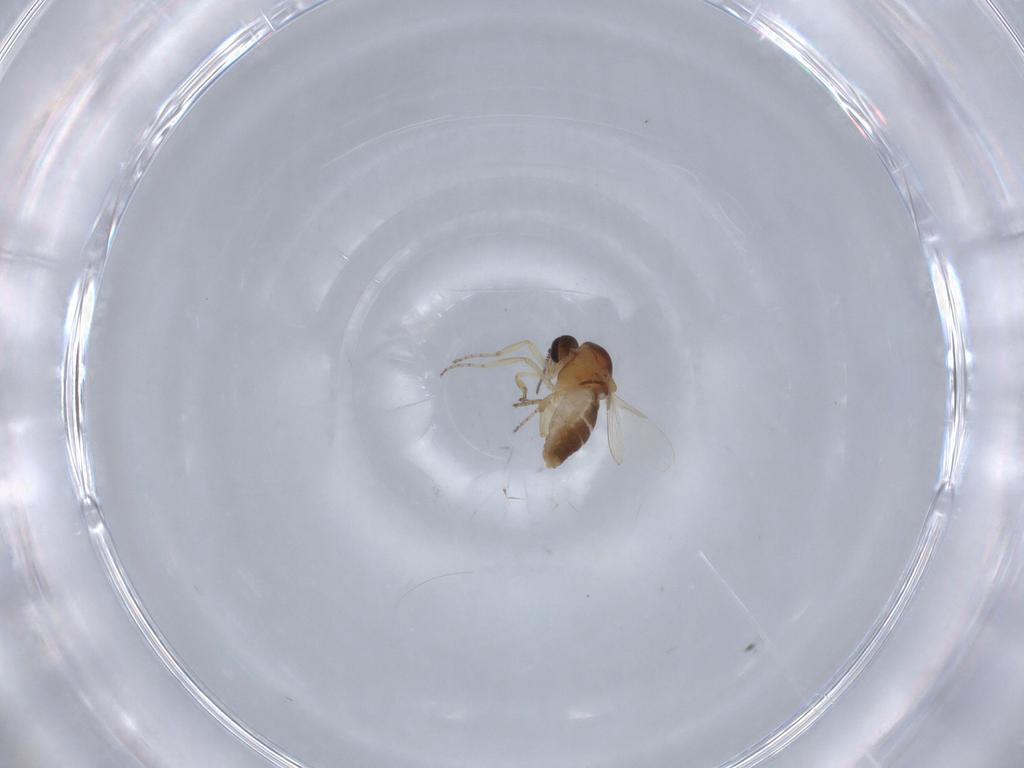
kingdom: Animalia
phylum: Arthropoda
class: Insecta
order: Diptera
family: Ceratopogonidae
